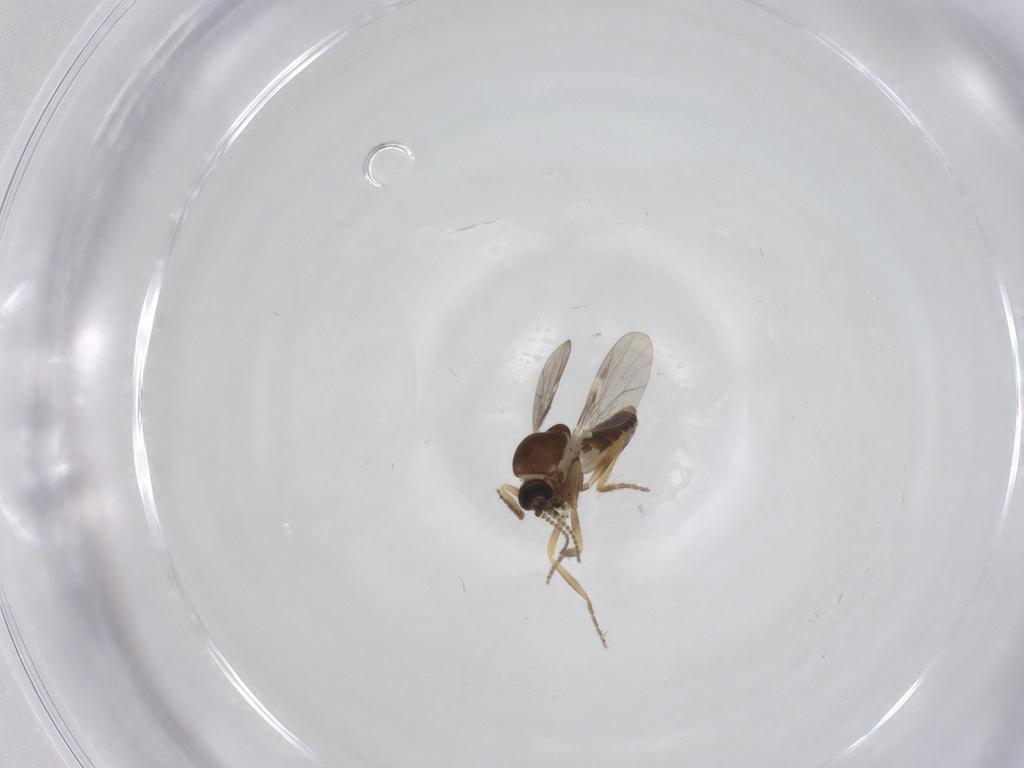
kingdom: Animalia
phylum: Arthropoda
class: Insecta
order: Diptera
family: Ceratopogonidae
